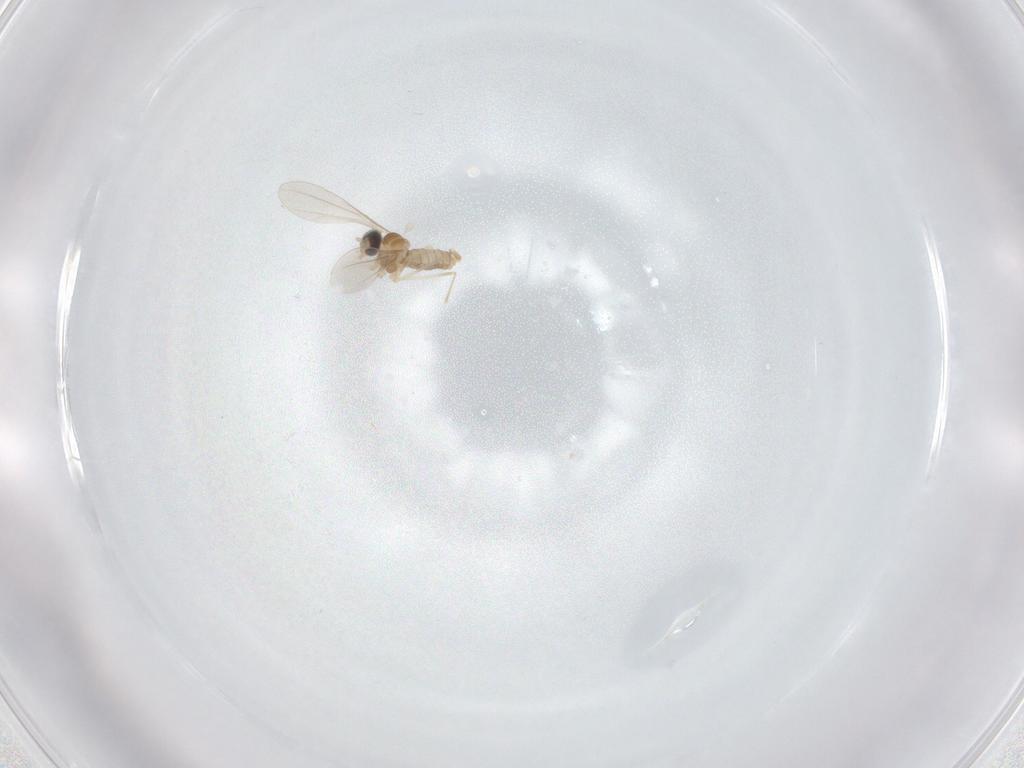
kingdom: Animalia
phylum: Arthropoda
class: Insecta
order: Diptera
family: Cecidomyiidae
